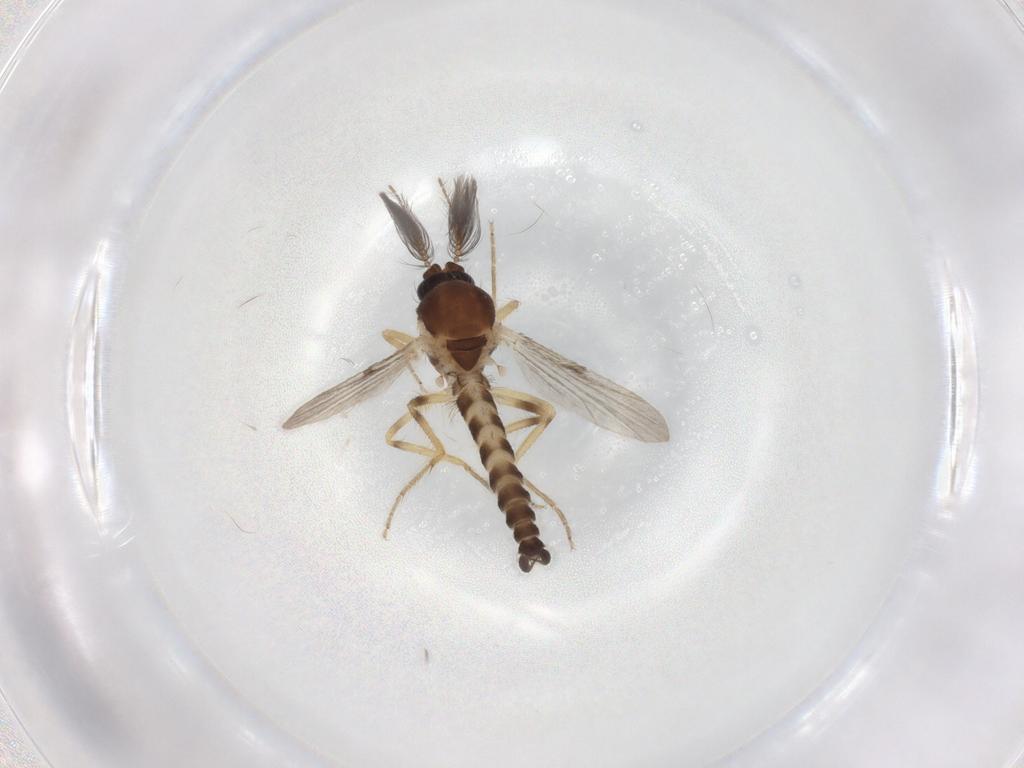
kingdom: Animalia
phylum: Arthropoda
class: Insecta
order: Diptera
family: Ceratopogonidae
